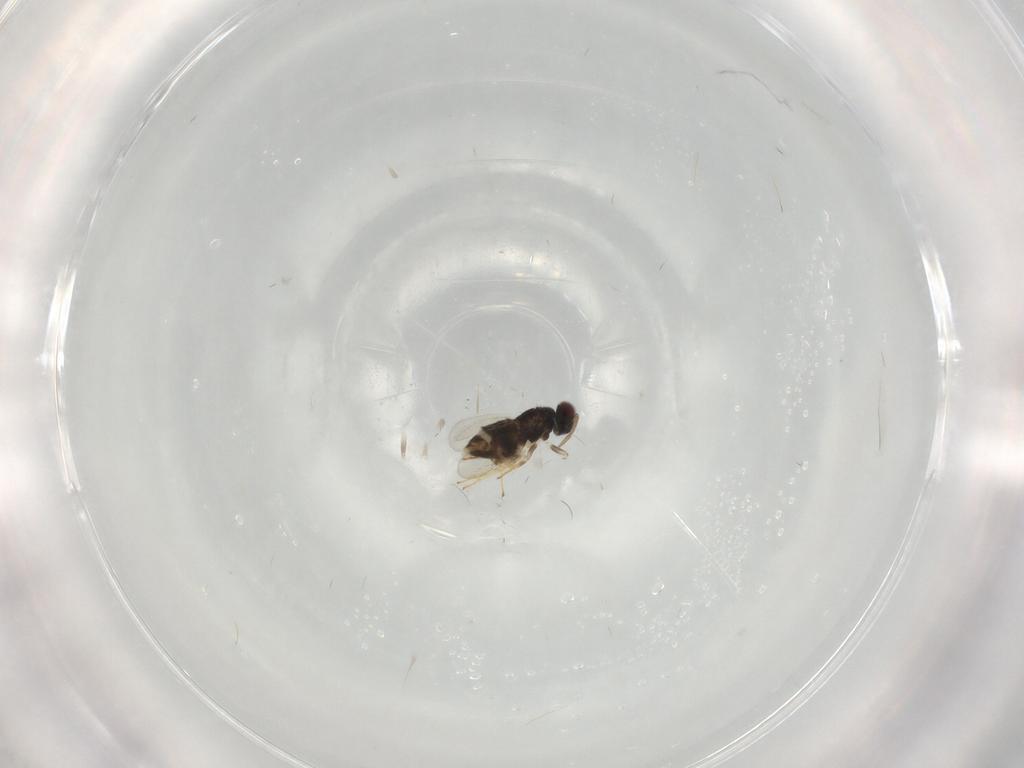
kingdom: Animalia
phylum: Arthropoda
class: Insecta
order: Hymenoptera
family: Aphelinidae
